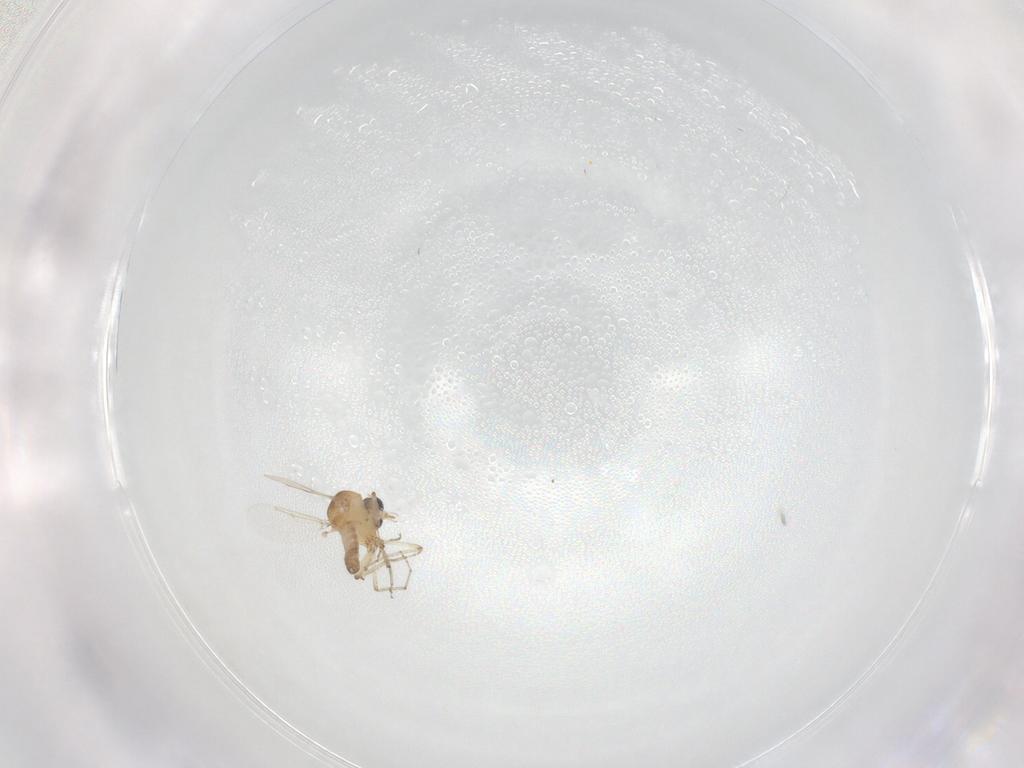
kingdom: Animalia
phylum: Arthropoda
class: Insecta
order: Diptera
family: Ceratopogonidae
